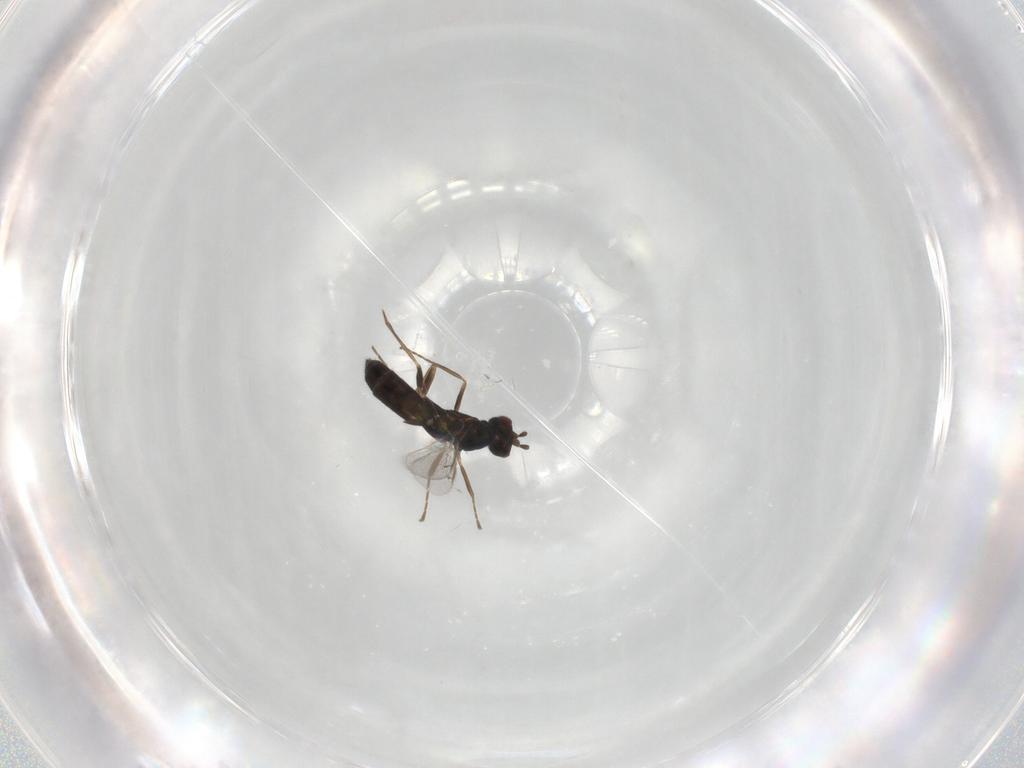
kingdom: Animalia
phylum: Arthropoda
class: Insecta
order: Hymenoptera
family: Eulophidae
